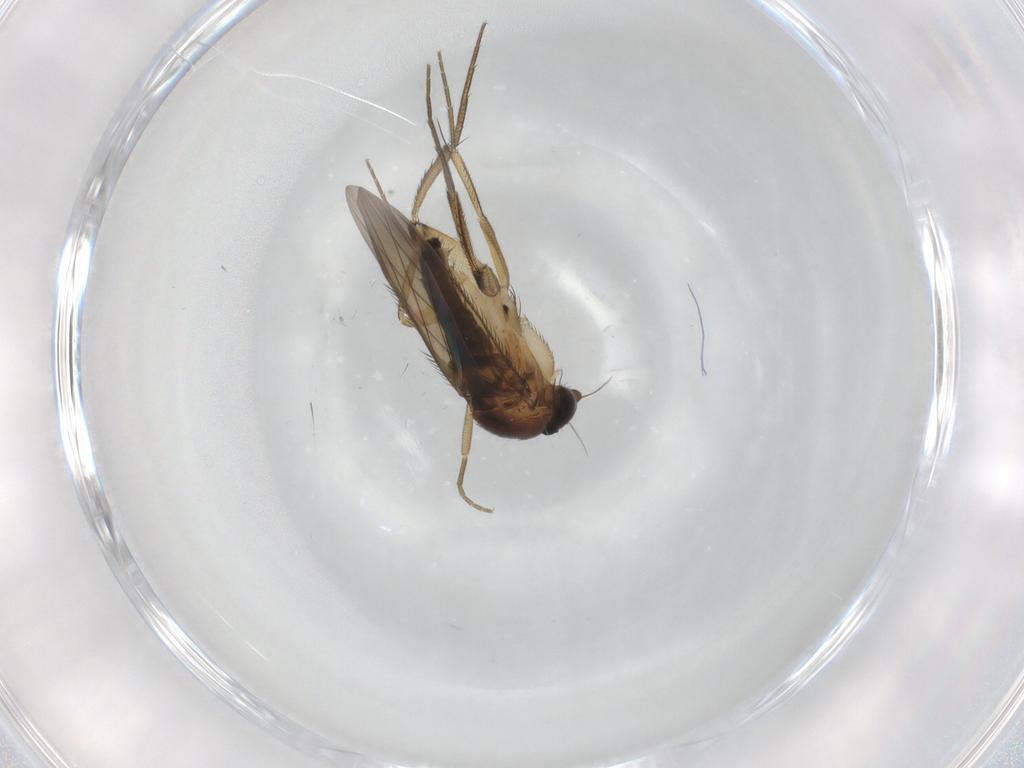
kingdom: Animalia
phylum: Arthropoda
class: Insecta
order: Diptera
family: Phoridae
